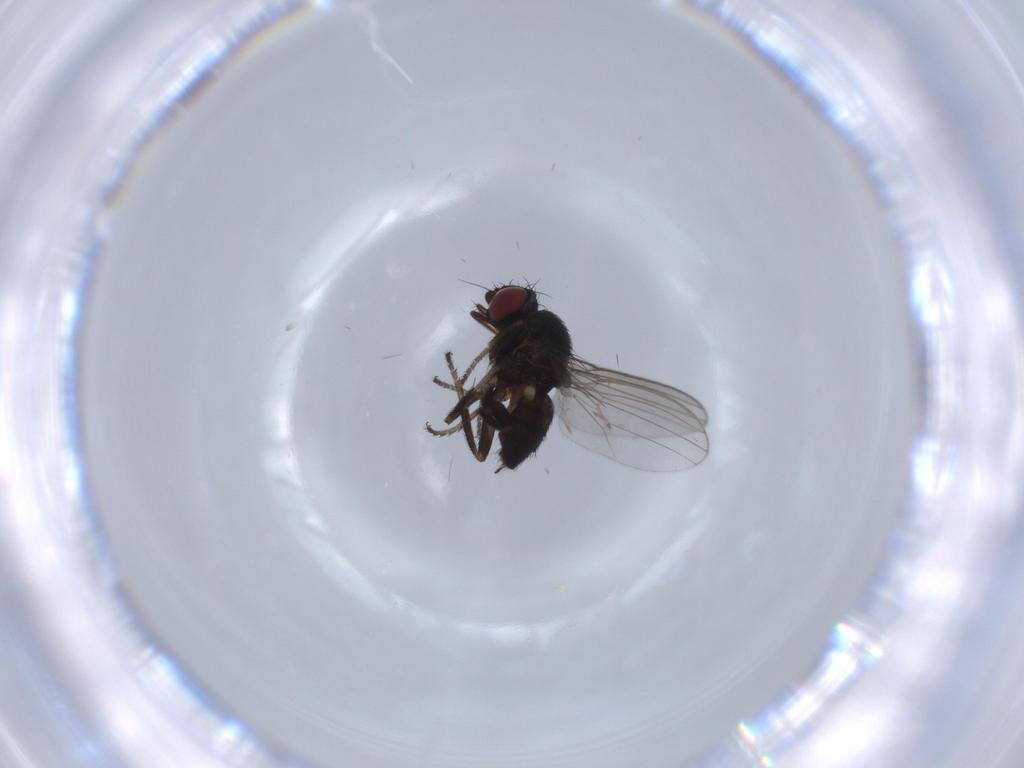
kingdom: Animalia
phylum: Arthropoda
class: Insecta
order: Diptera
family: Milichiidae
